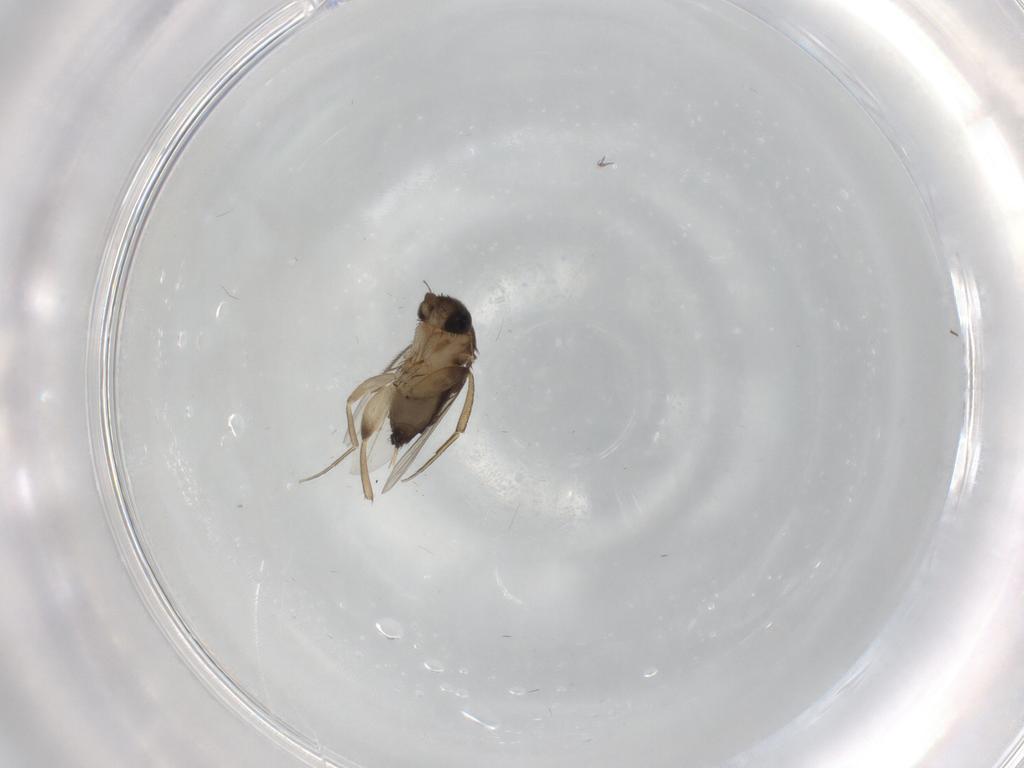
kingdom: Animalia
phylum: Arthropoda
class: Insecta
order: Diptera
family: Phoridae
